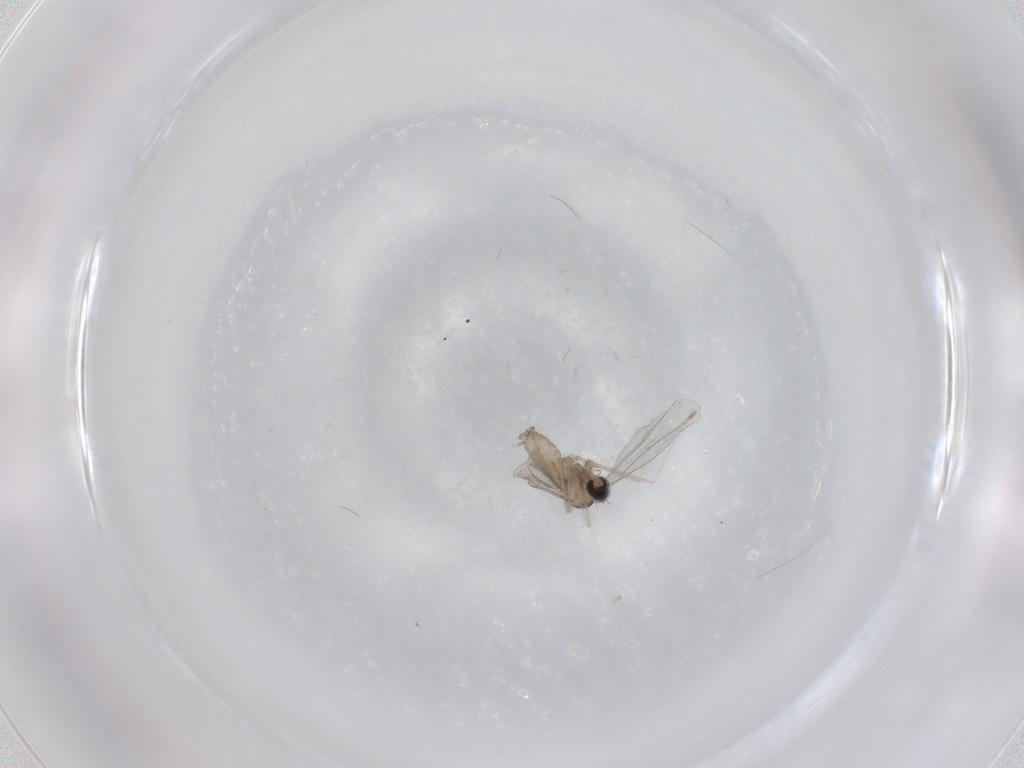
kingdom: Animalia
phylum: Arthropoda
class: Insecta
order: Diptera
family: Cecidomyiidae
